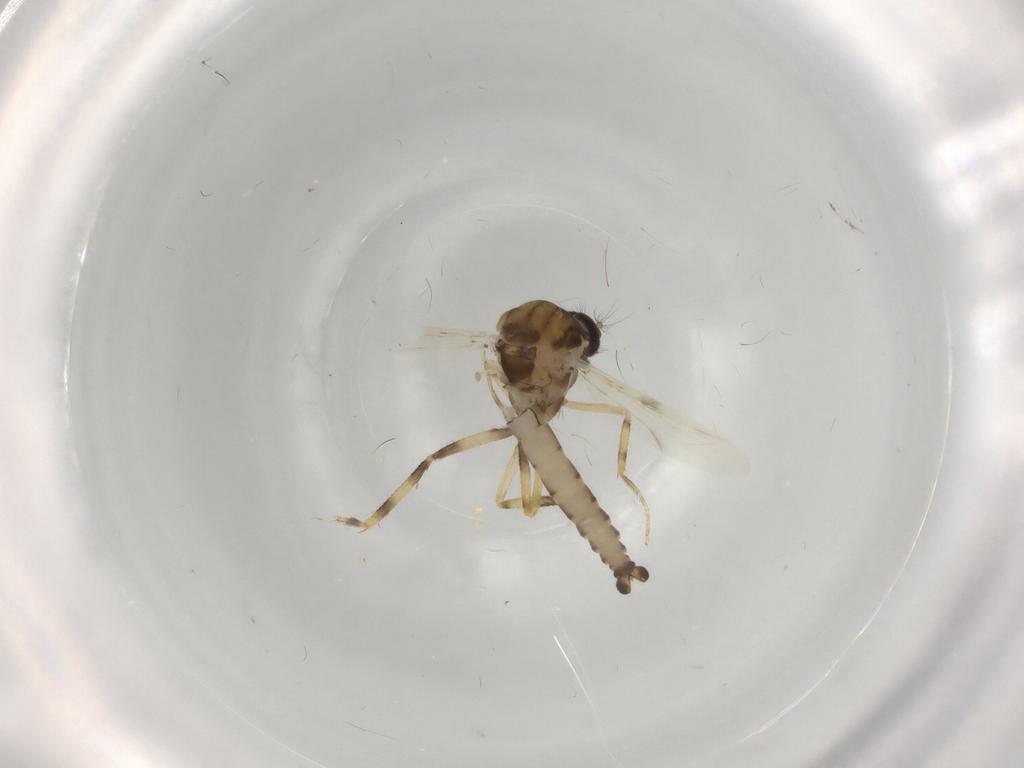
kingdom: Animalia
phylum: Arthropoda
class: Insecta
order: Diptera
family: Ceratopogonidae
